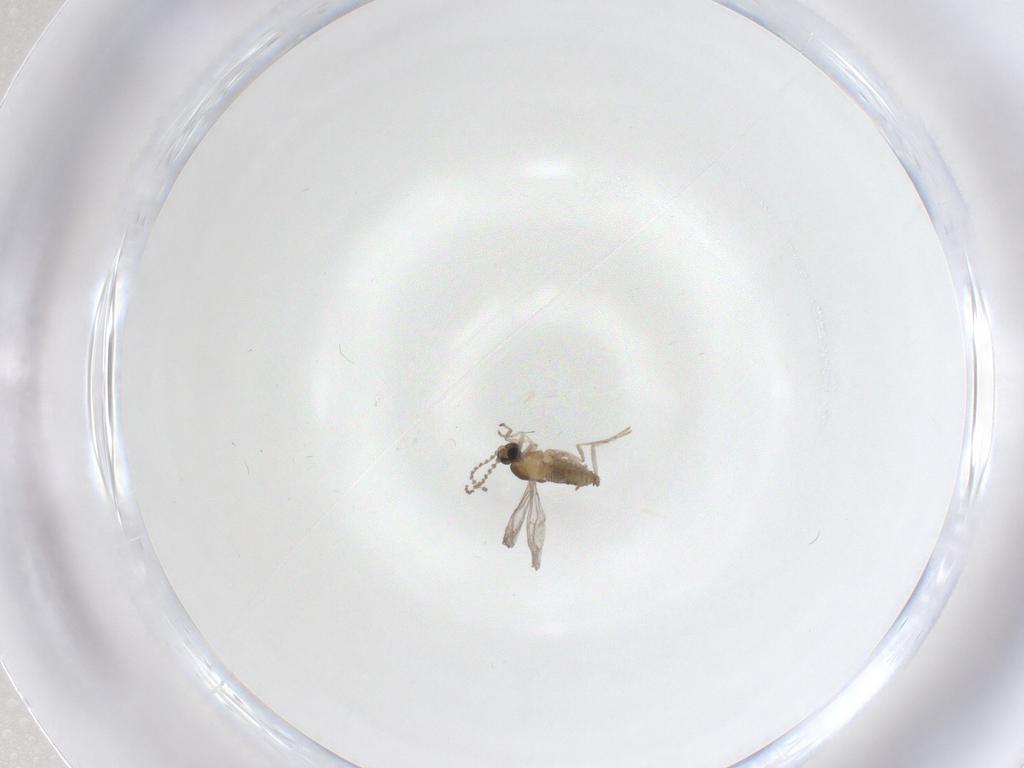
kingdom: Animalia
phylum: Arthropoda
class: Insecta
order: Diptera
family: Cecidomyiidae
